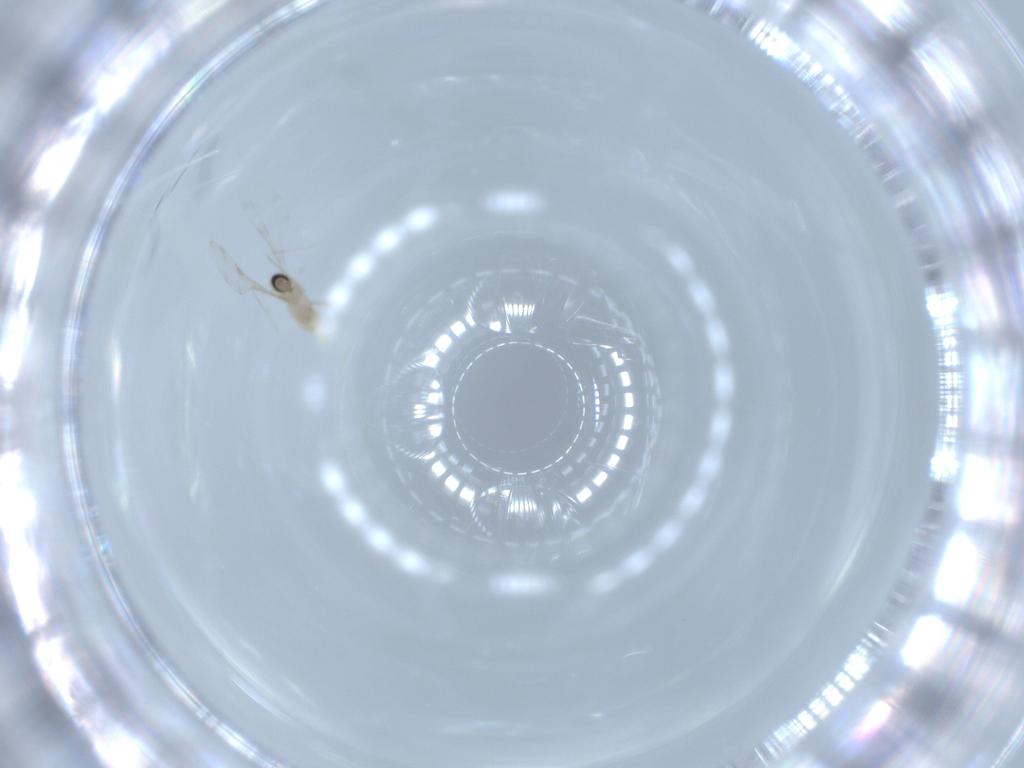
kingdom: Animalia
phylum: Arthropoda
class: Insecta
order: Diptera
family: Cecidomyiidae
